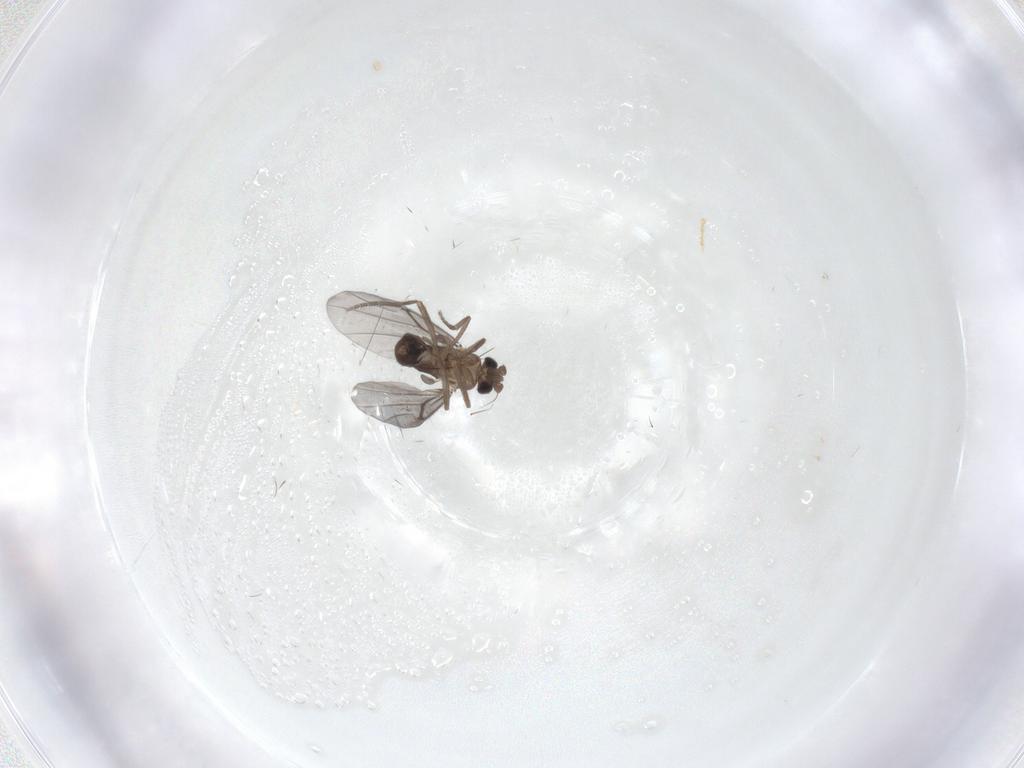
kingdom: Animalia
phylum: Arthropoda
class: Insecta
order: Diptera
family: Phoridae
